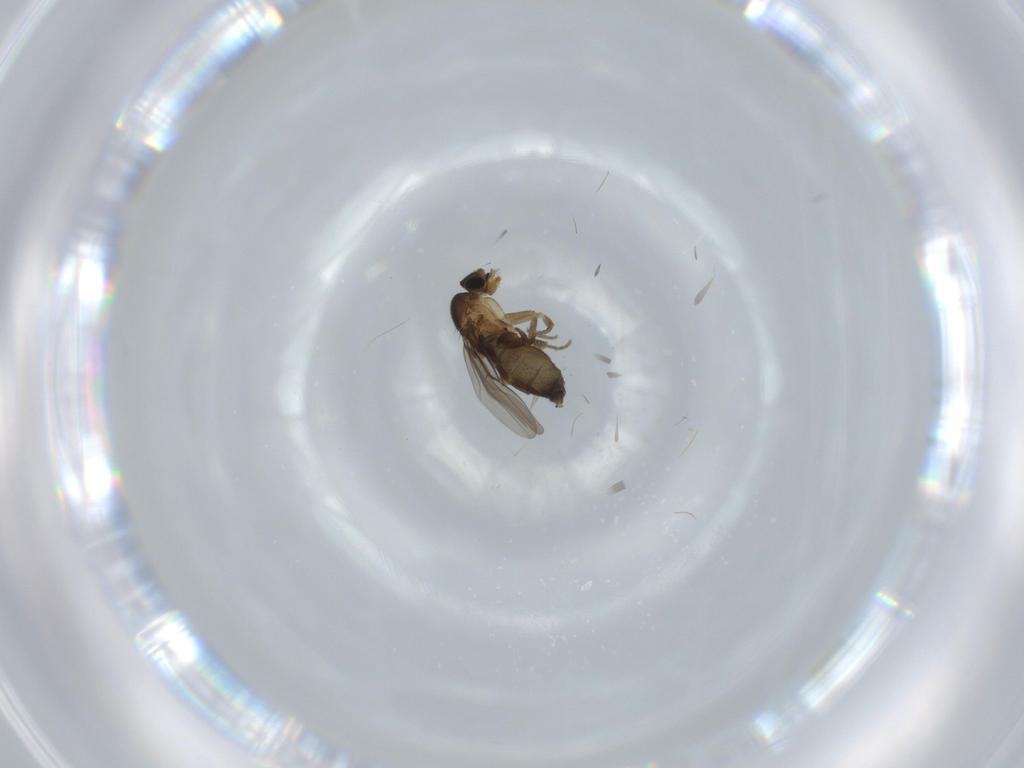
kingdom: Animalia
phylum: Arthropoda
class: Insecta
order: Diptera
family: Phoridae
